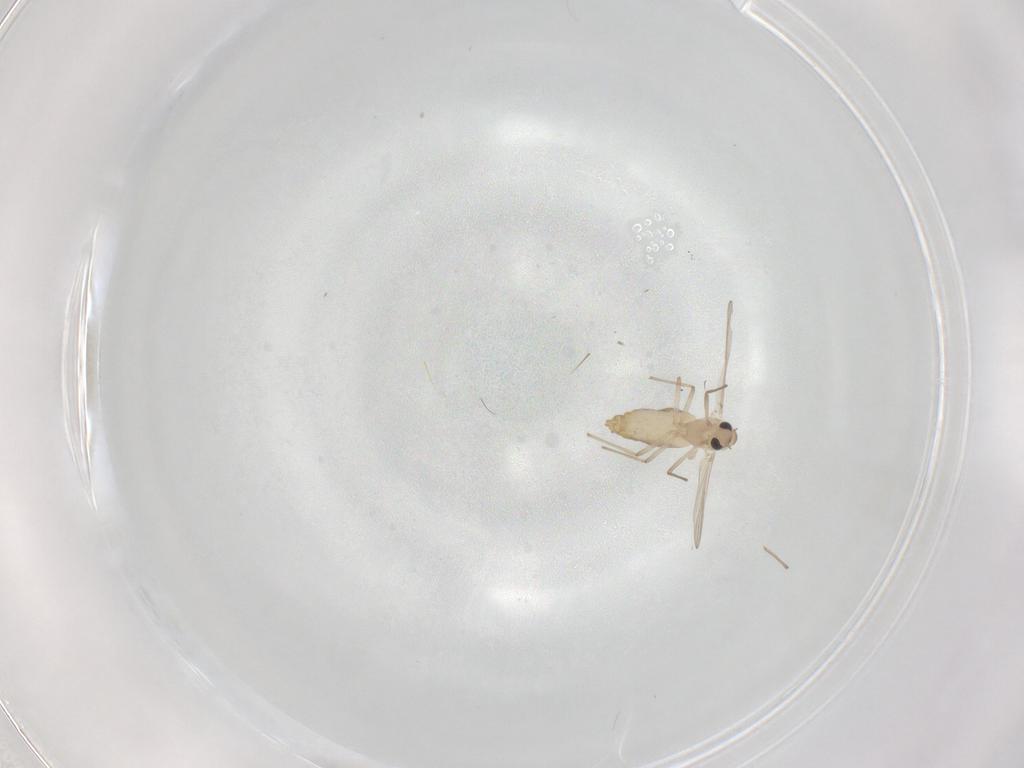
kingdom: Animalia
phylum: Arthropoda
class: Insecta
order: Diptera
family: Chironomidae
